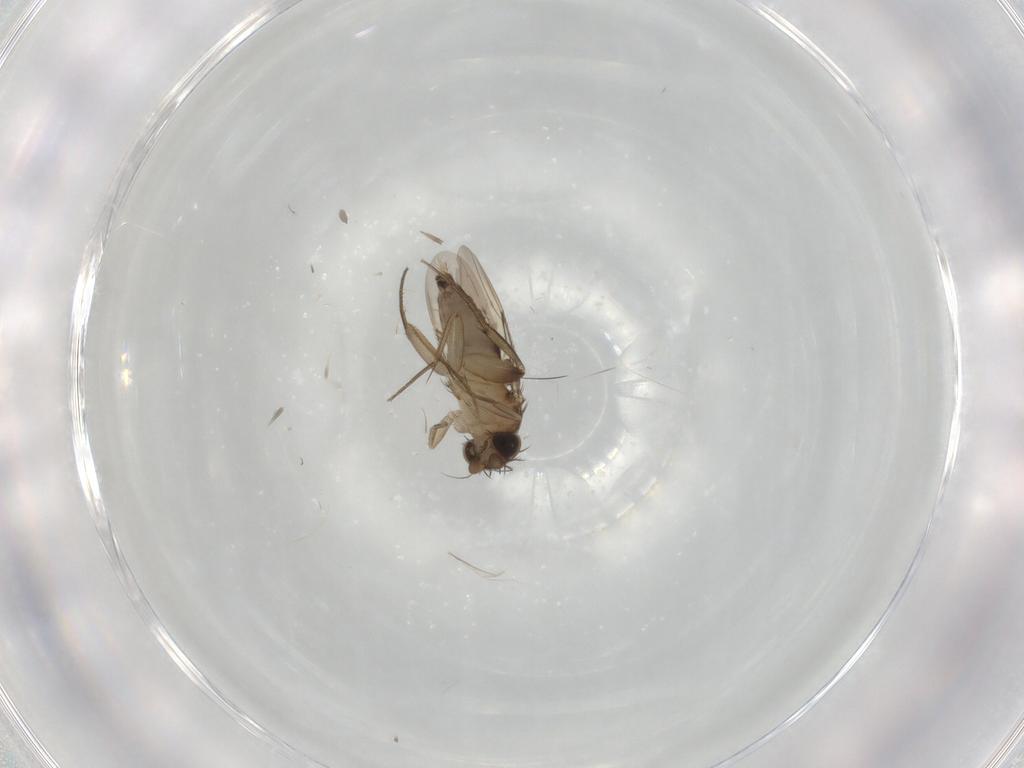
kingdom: Animalia
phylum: Arthropoda
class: Insecta
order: Diptera
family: Phoridae
